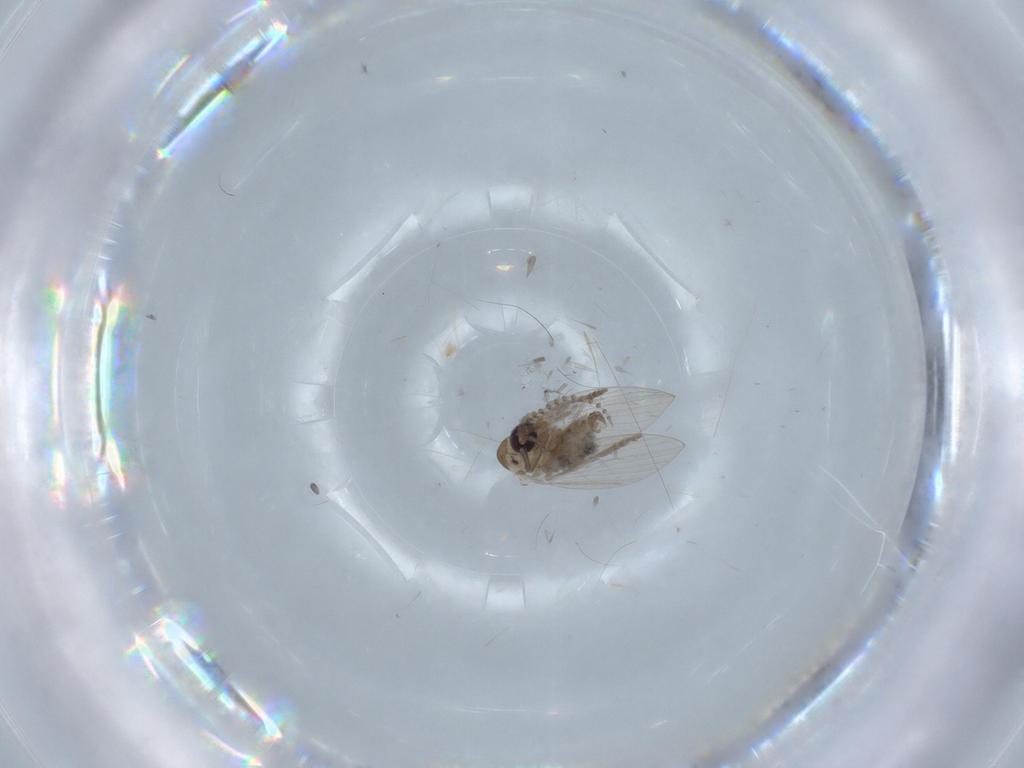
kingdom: Animalia
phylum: Arthropoda
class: Insecta
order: Diptera
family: Psychodidae
